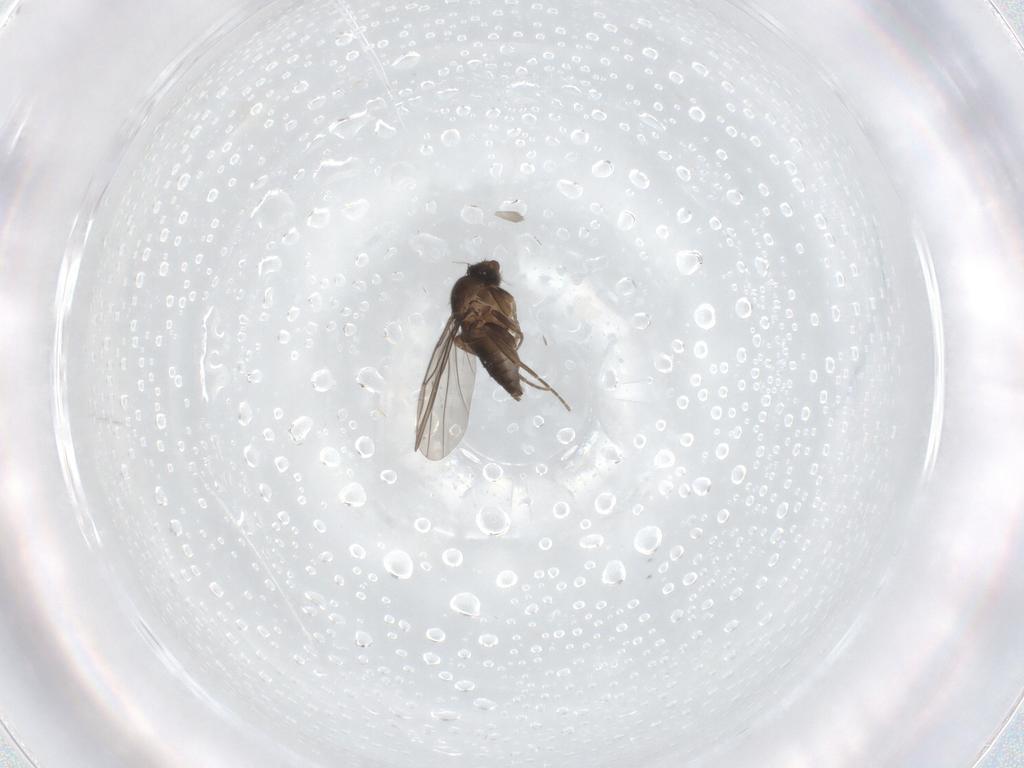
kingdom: Animalia
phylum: Arthropoda
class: Insecta
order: Diptera
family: Phoridae
